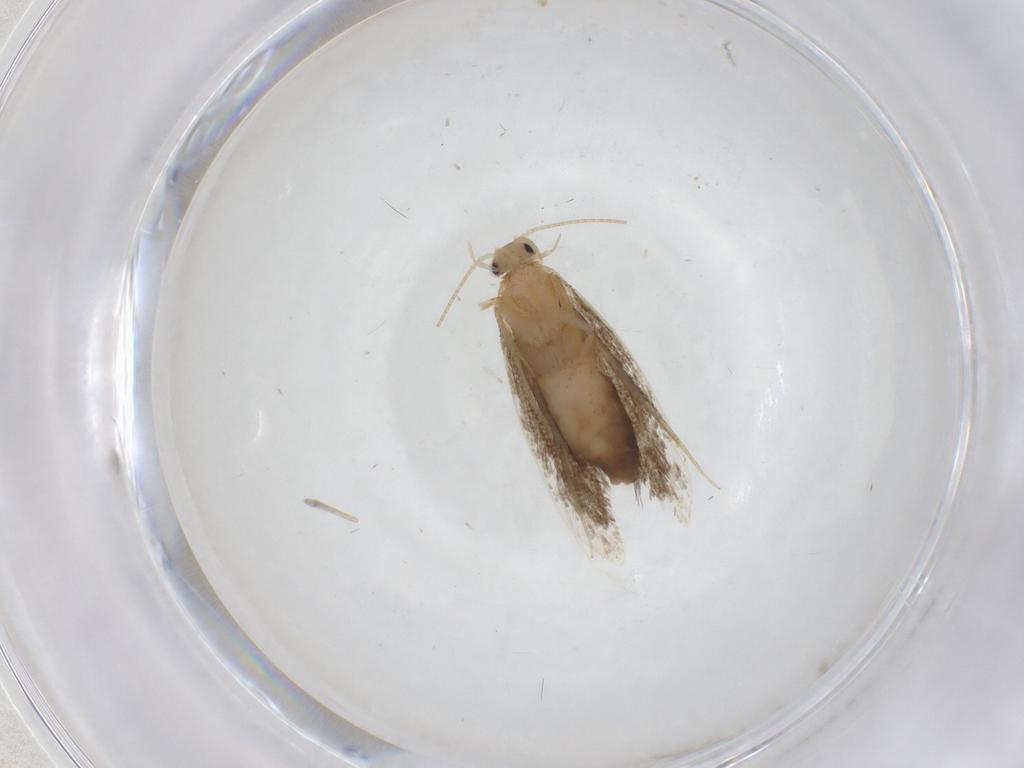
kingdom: Animalia
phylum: Arthropoda
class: Insecta
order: Lepidoptera
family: Dryadaulidae
